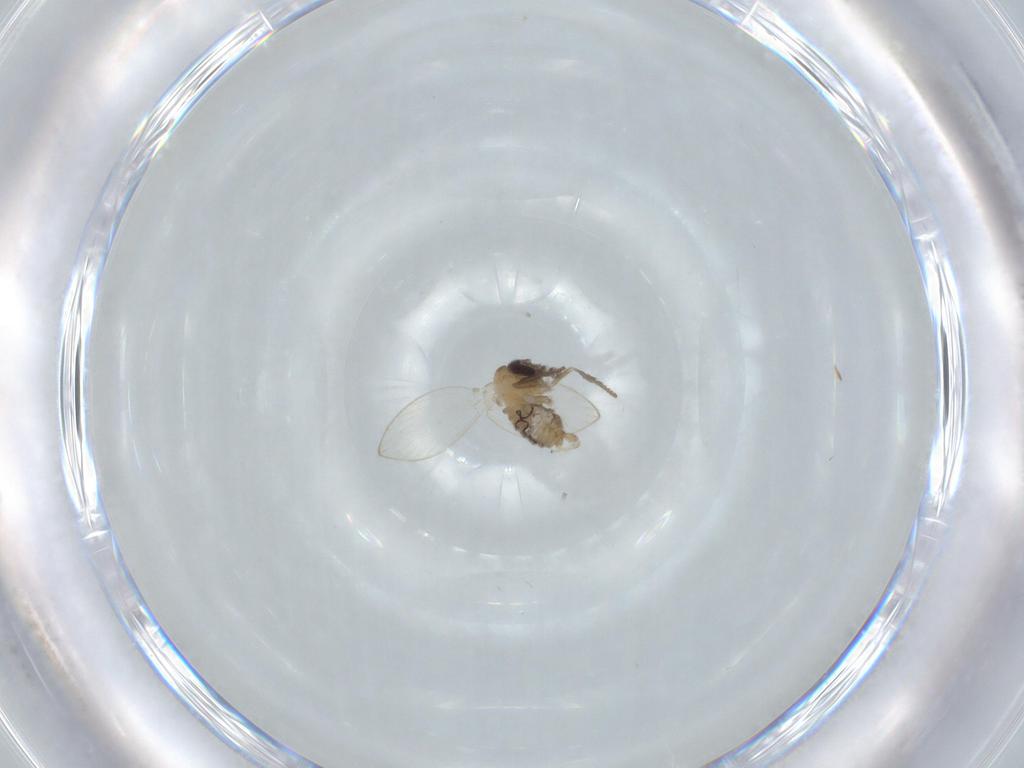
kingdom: Animalia
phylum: Arthropoda
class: Insecta
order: Diptera
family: Psychodidae
